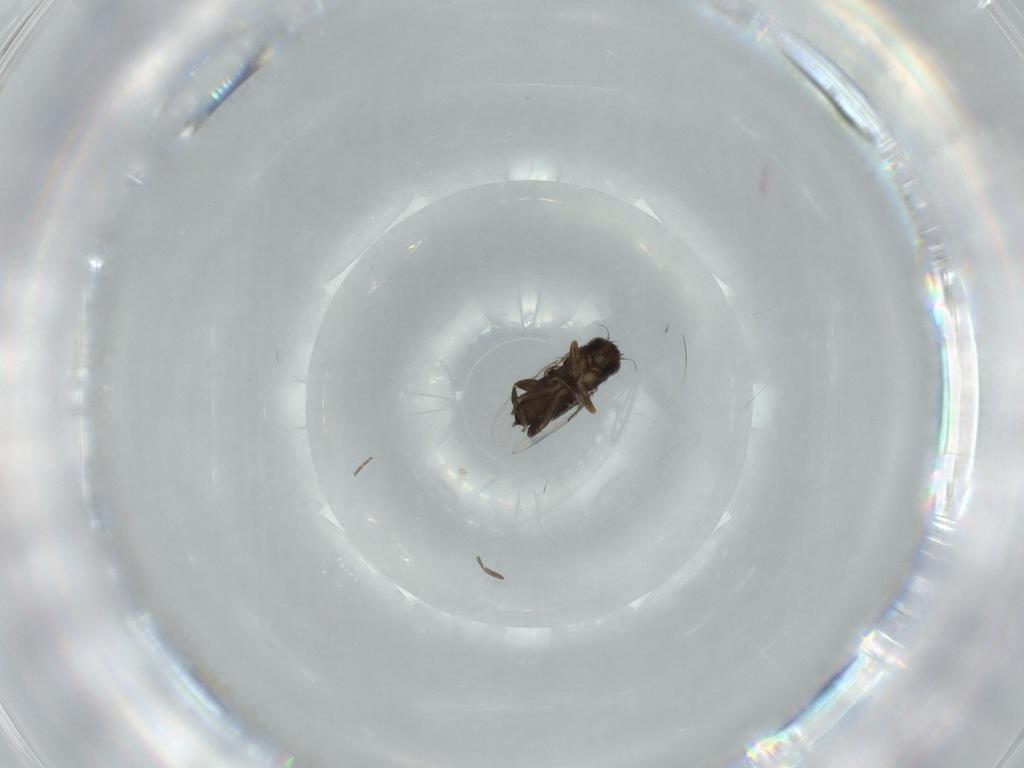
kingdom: Animalia
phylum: Arthropoda
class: Insecta
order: Diptera
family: Phoridae
